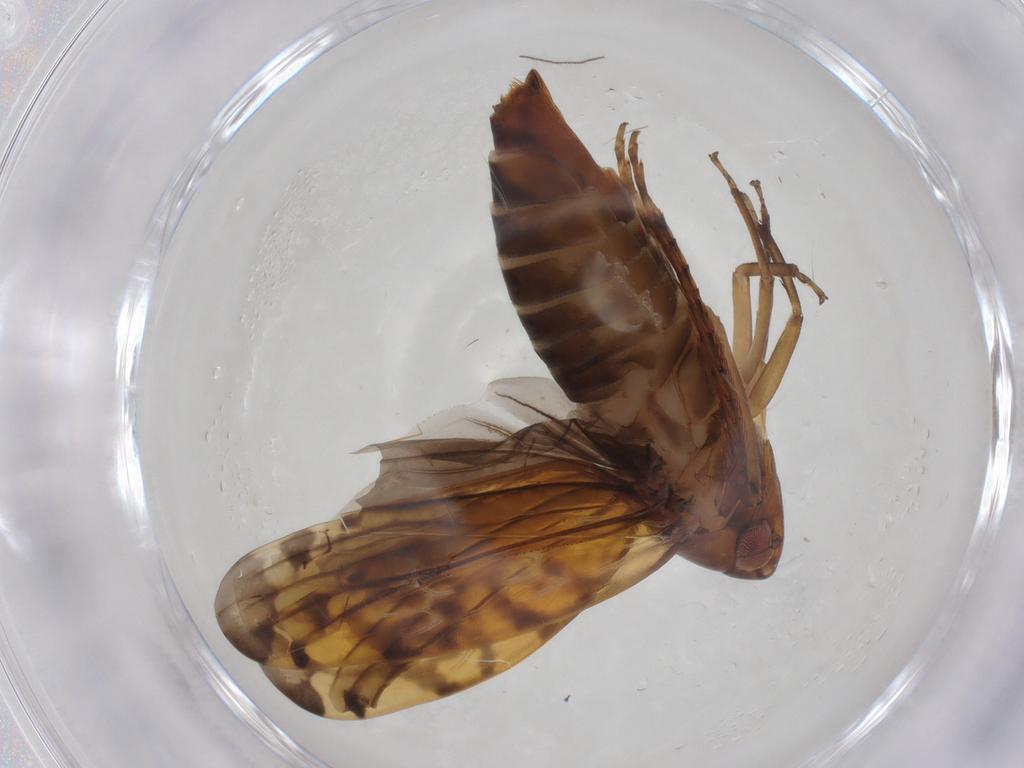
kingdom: Animalia
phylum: Arthropoda
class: Insecta
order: Hemiptera
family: Cicadellidae
